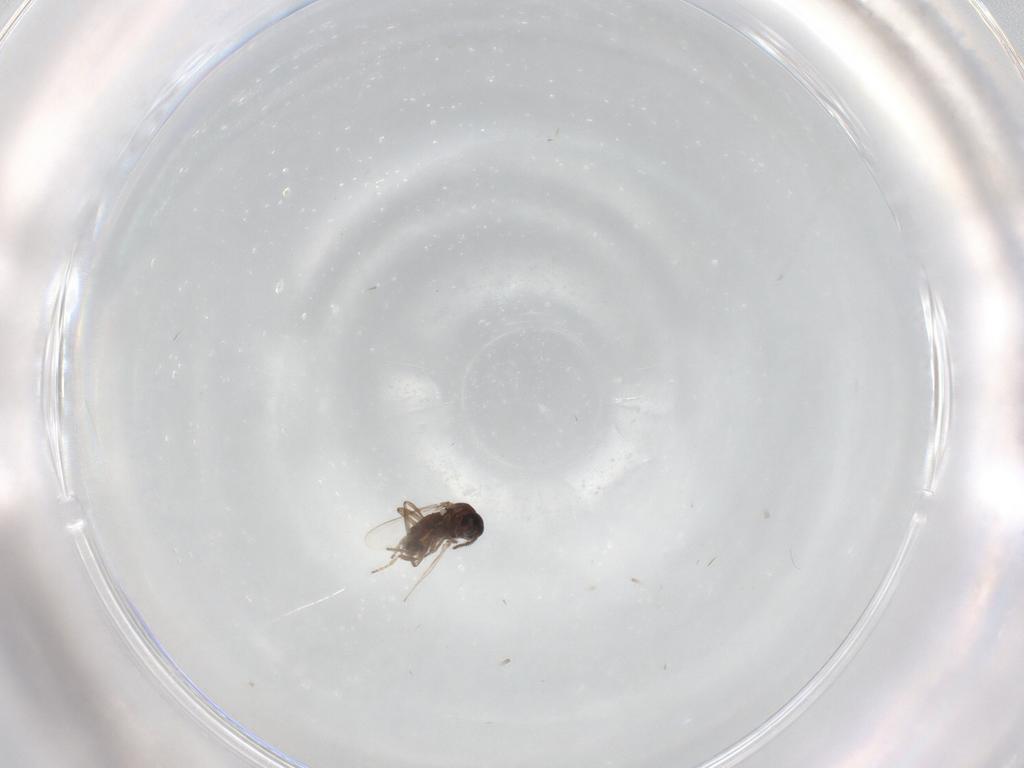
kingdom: Animalia
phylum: Arthropoda
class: Insecta
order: Diptera
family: Ceratopogonidae
